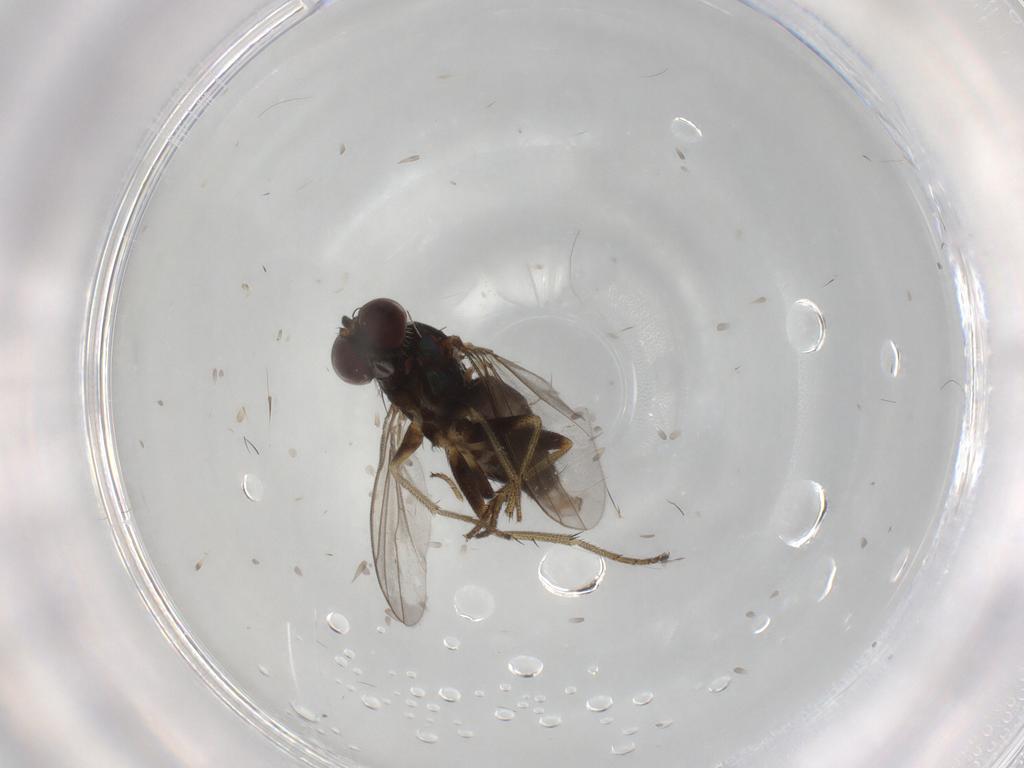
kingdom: Animalia
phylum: Arthropoda
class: Insecta
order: Diptera
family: Dolichopodidae
